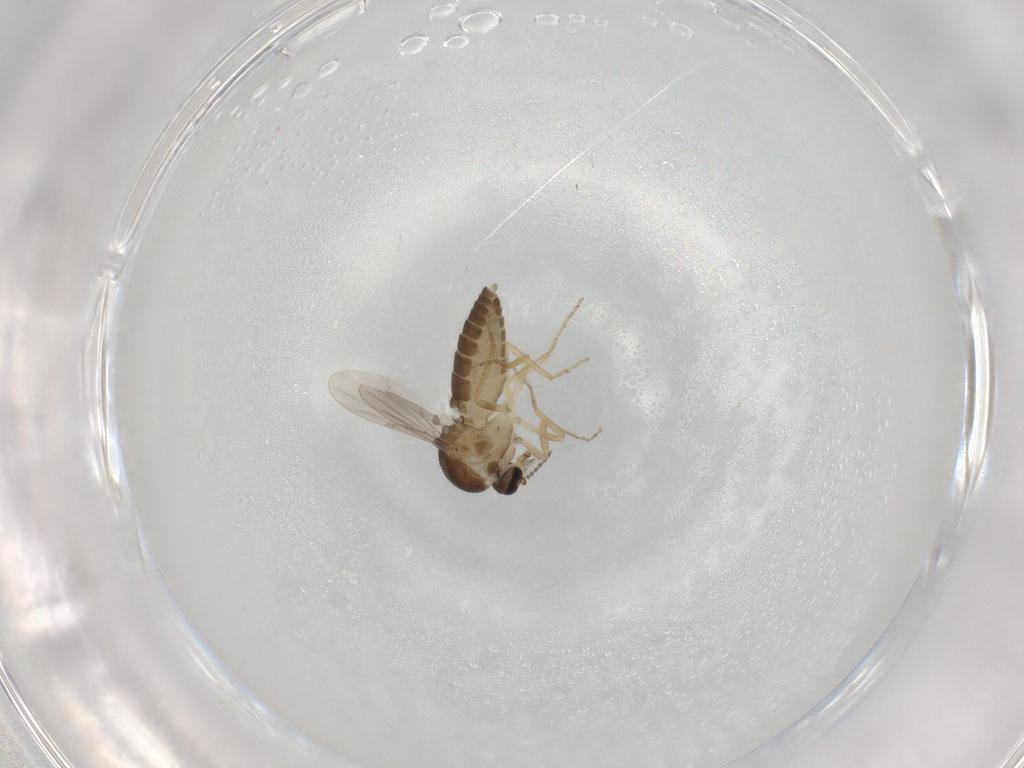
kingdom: Animalia
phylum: Arthropoda
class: Insecta
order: Diptera
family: Ceratopogonidae
